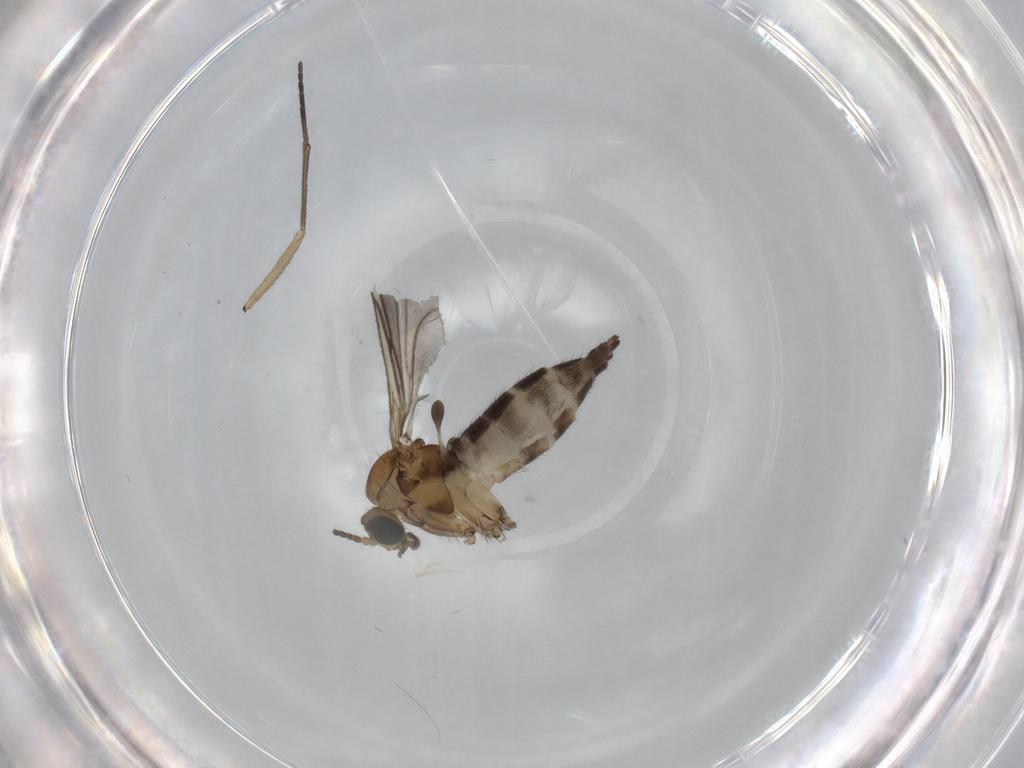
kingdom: Animalia
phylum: Arthropoda
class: Insecta
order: Diptera
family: Sciaridae
